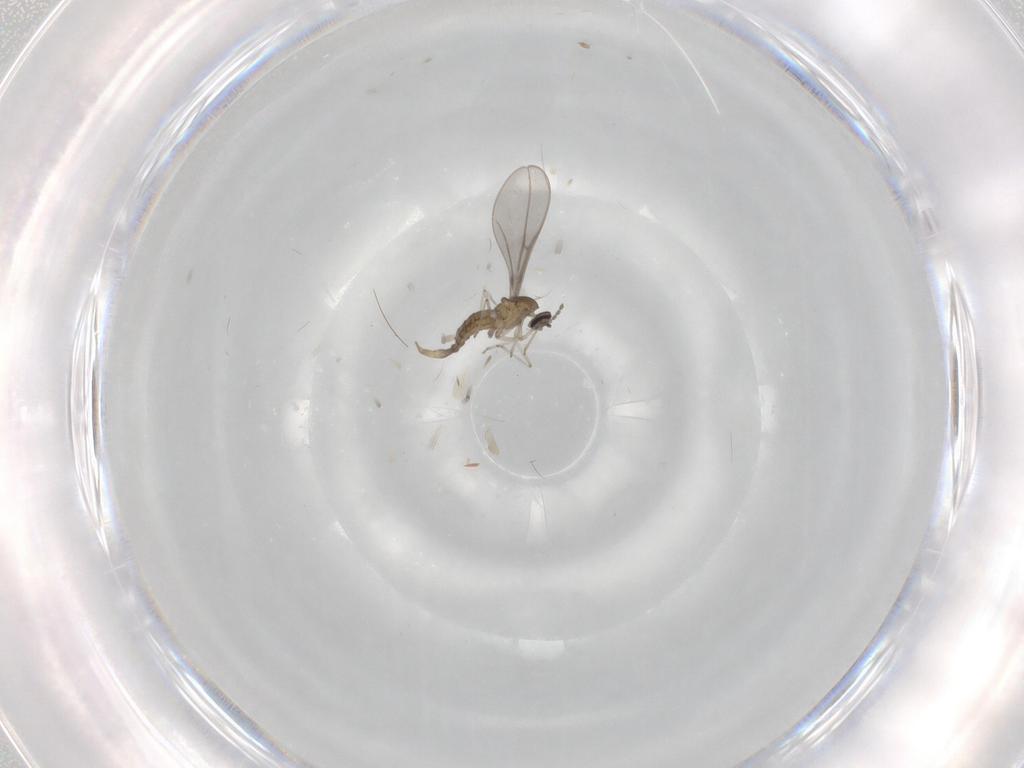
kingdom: Animalia
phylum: Arthropoda
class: Insecta
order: Diptera
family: Ceratopogonidae
